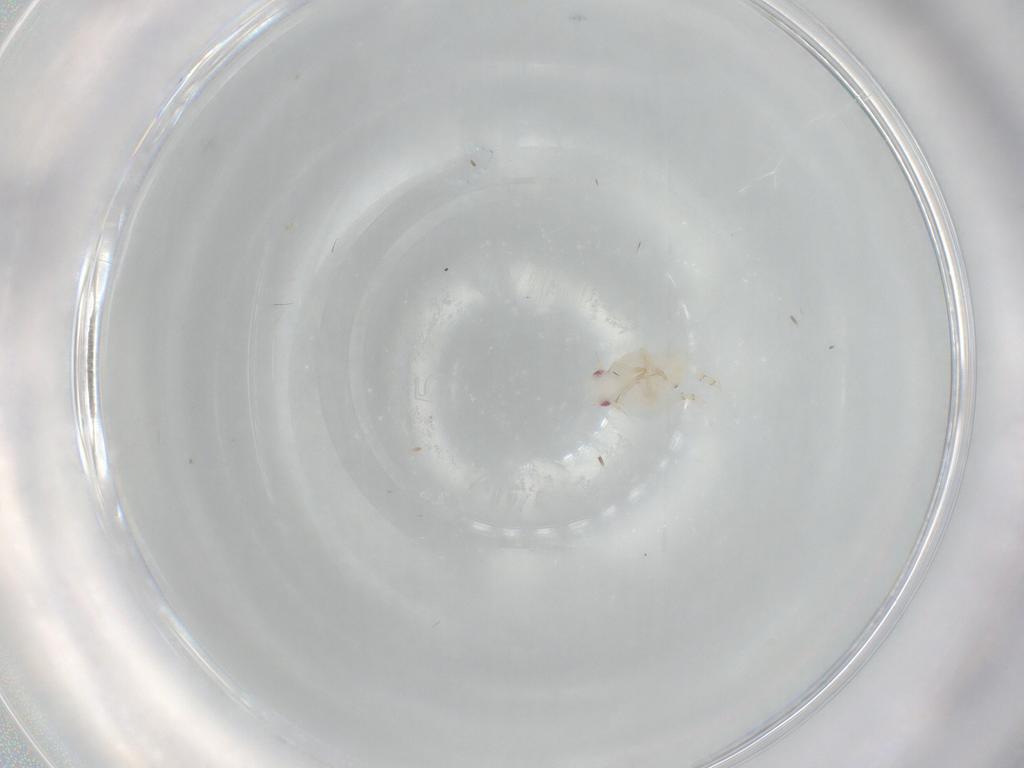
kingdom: Animalia
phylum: Arthropoda
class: Insecta
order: Hemiptera
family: Flatidae
